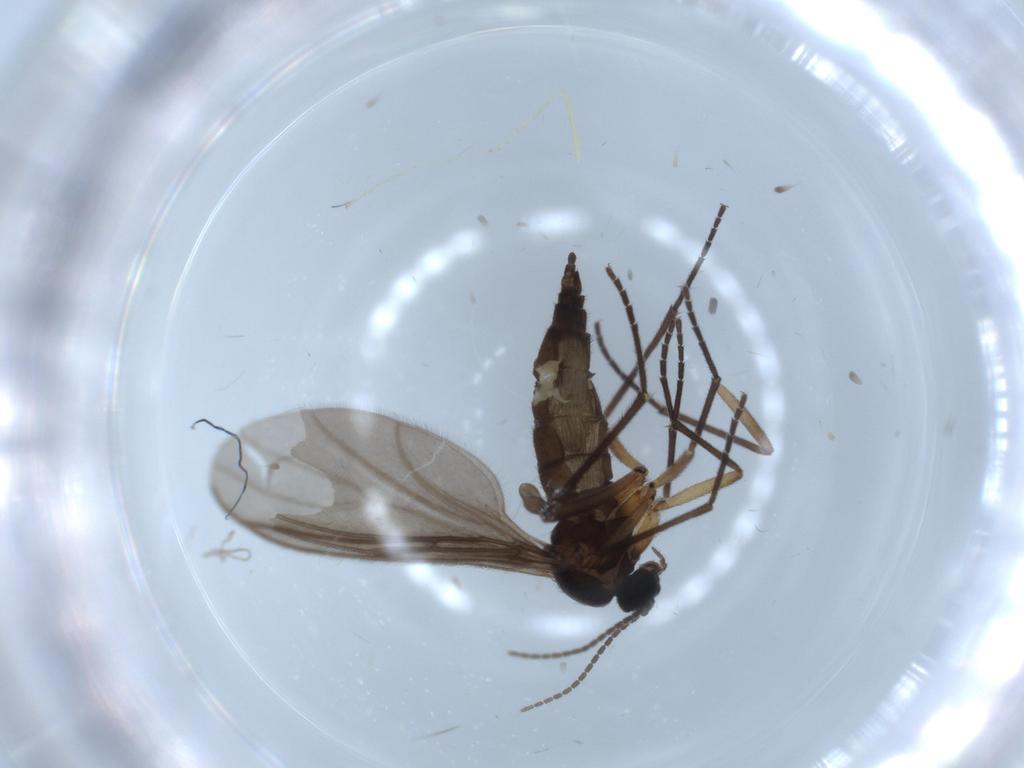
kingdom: Animalia
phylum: Arthropoda
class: Insecta
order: Diptera
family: Sciaridae
